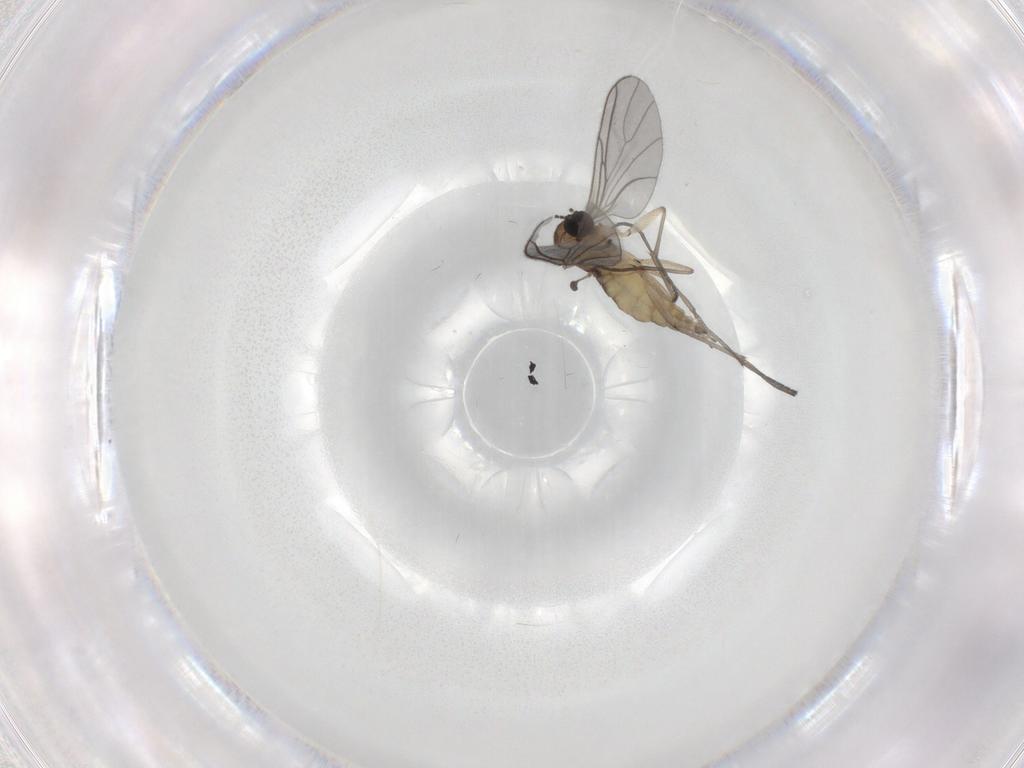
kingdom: Animalia
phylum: Arthropoda
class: Insecta
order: Diptera
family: Sciaridae
